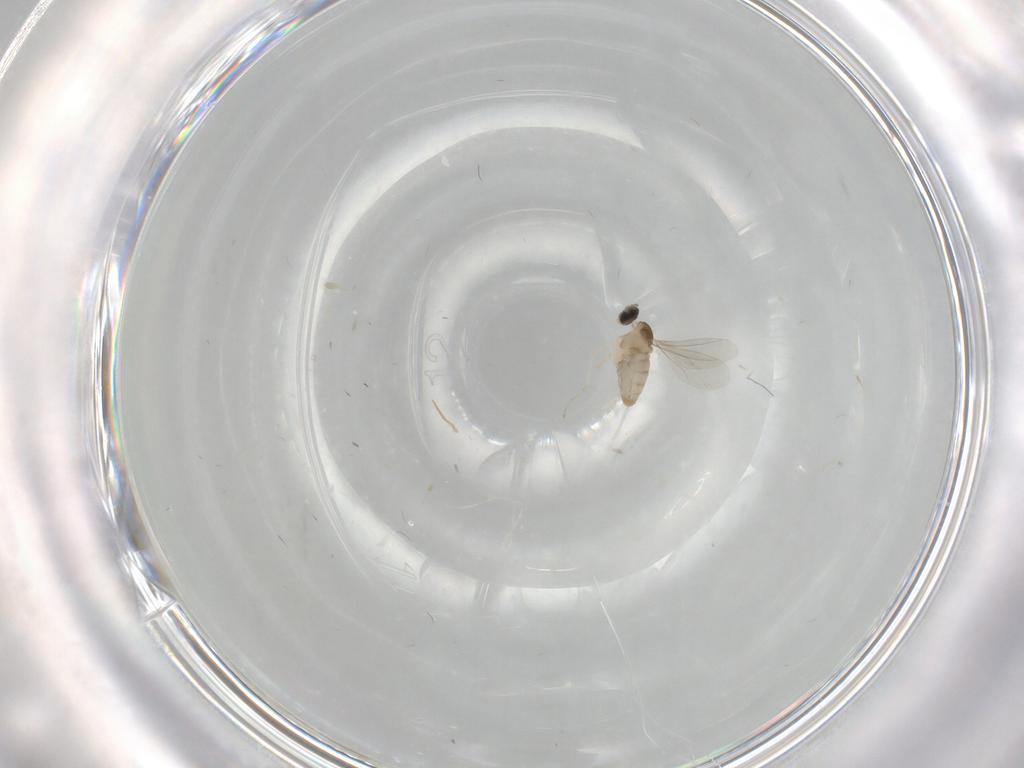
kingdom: Animalia
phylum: Arthropoda
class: Insecta
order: Diptera
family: Cecidomyiidae
